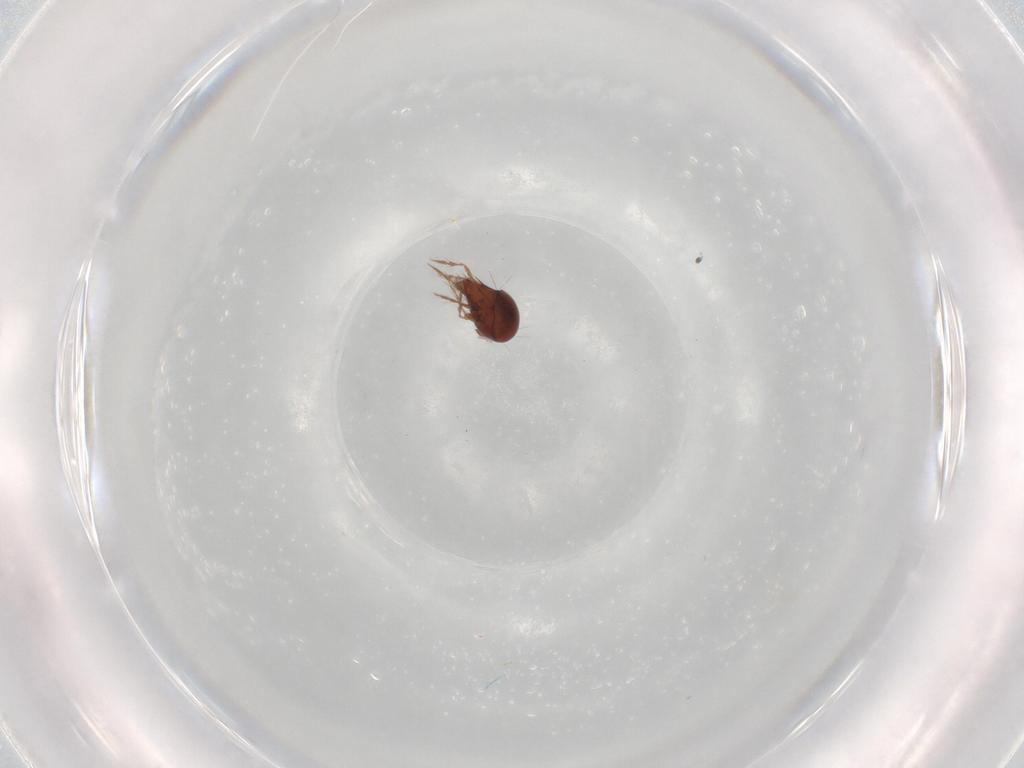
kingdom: Animalia
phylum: Arthropoda
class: Arachnida
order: Sarcoptiformes
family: Ceratoppiidae
